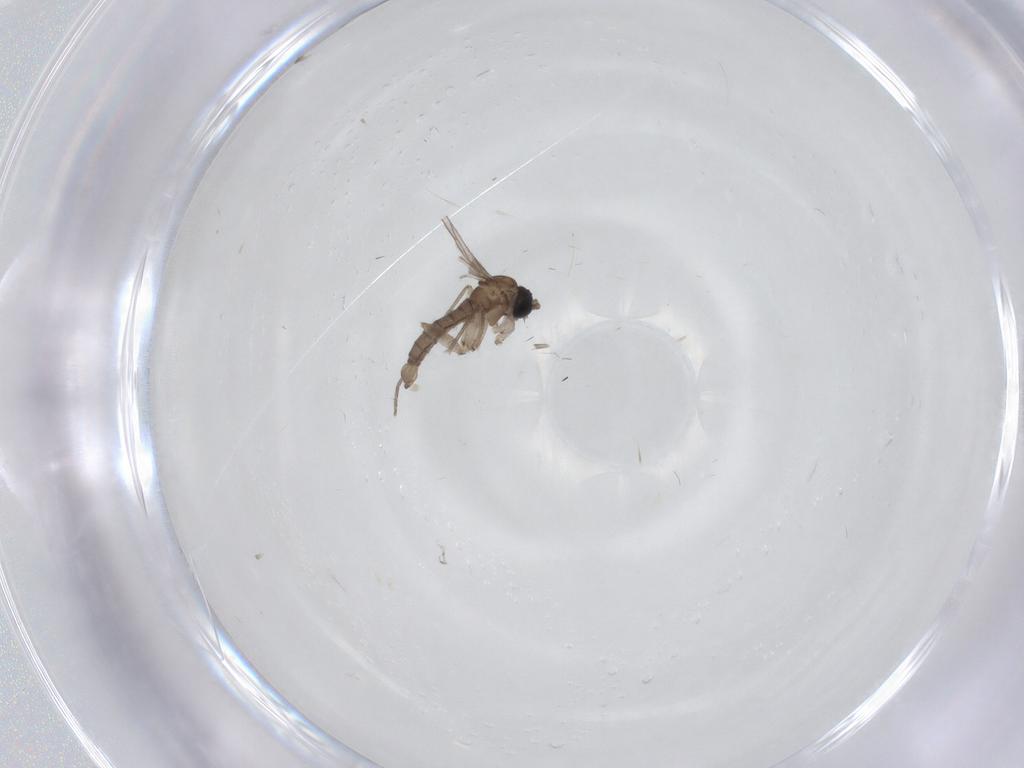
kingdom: Animalia
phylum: Arthropoda
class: Insecta
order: Diptera
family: Sciaridae
